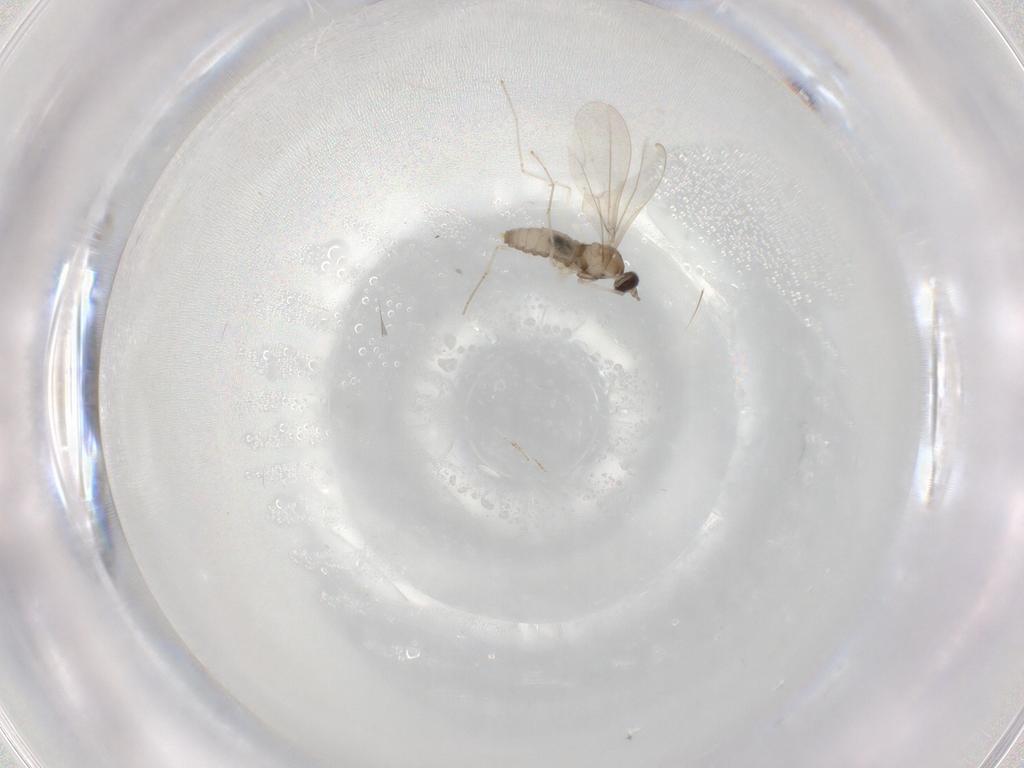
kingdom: Animalia
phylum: Arthropoda
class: Insecta
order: Diptera
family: Cecidomyiidae
